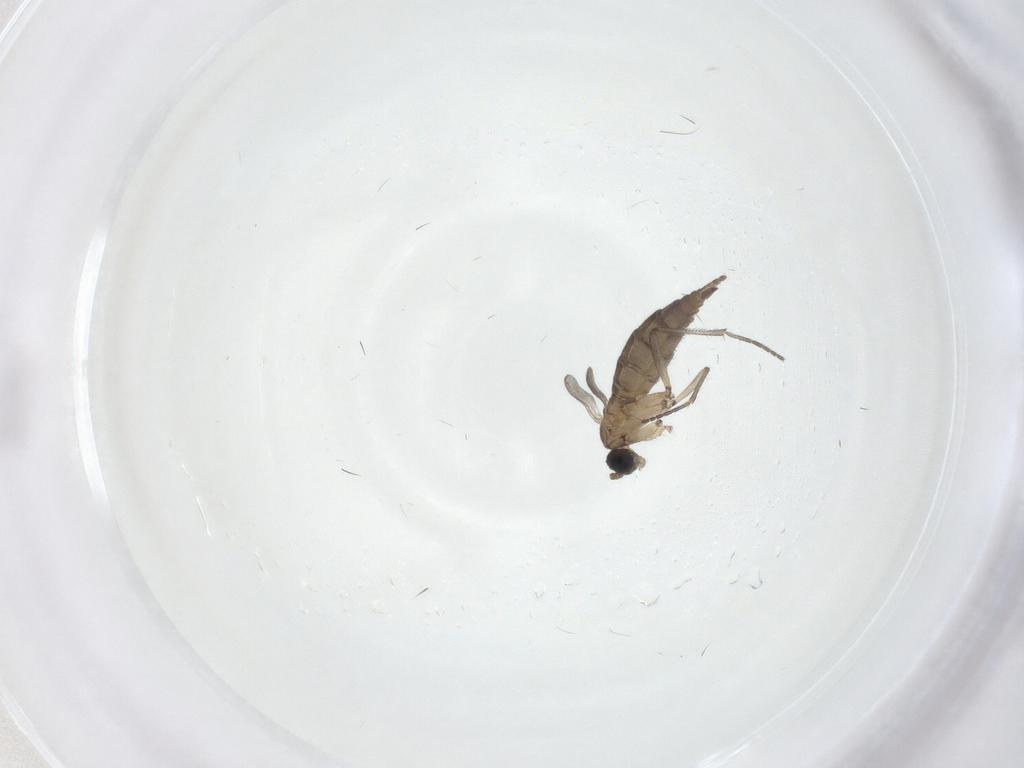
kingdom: Animalia
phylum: Arthropoda
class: Insecta
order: Diptera
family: Sciaridae
